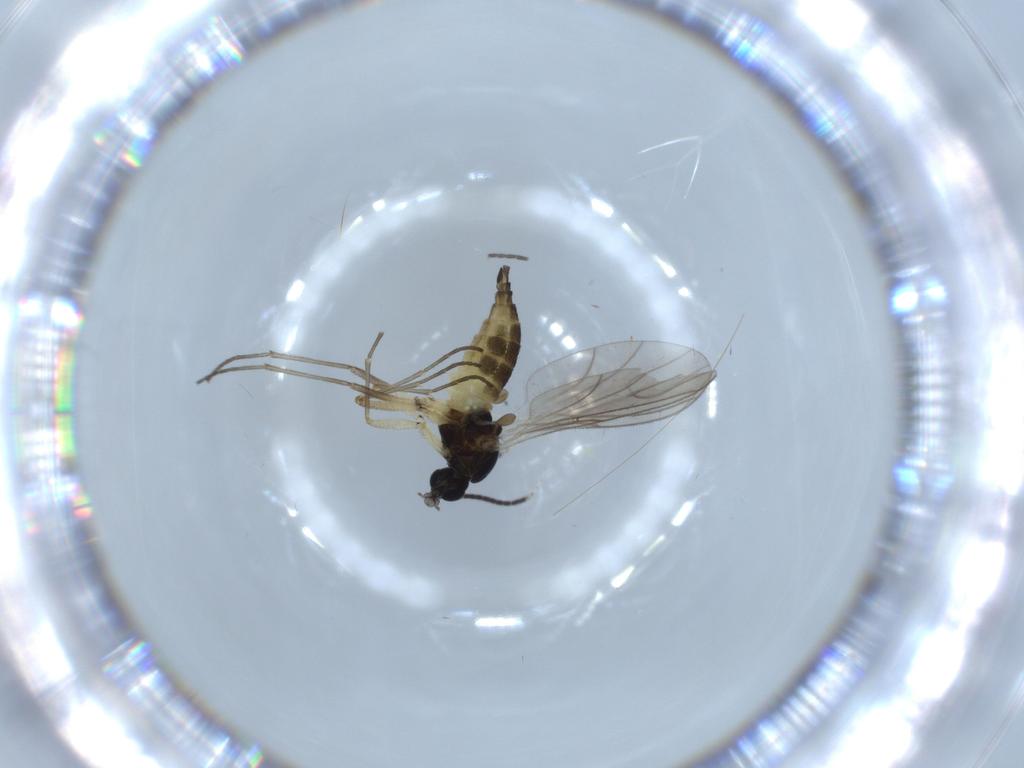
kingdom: Animalia
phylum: Arthropoda
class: Insecta
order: Diptera
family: Sciaridae
